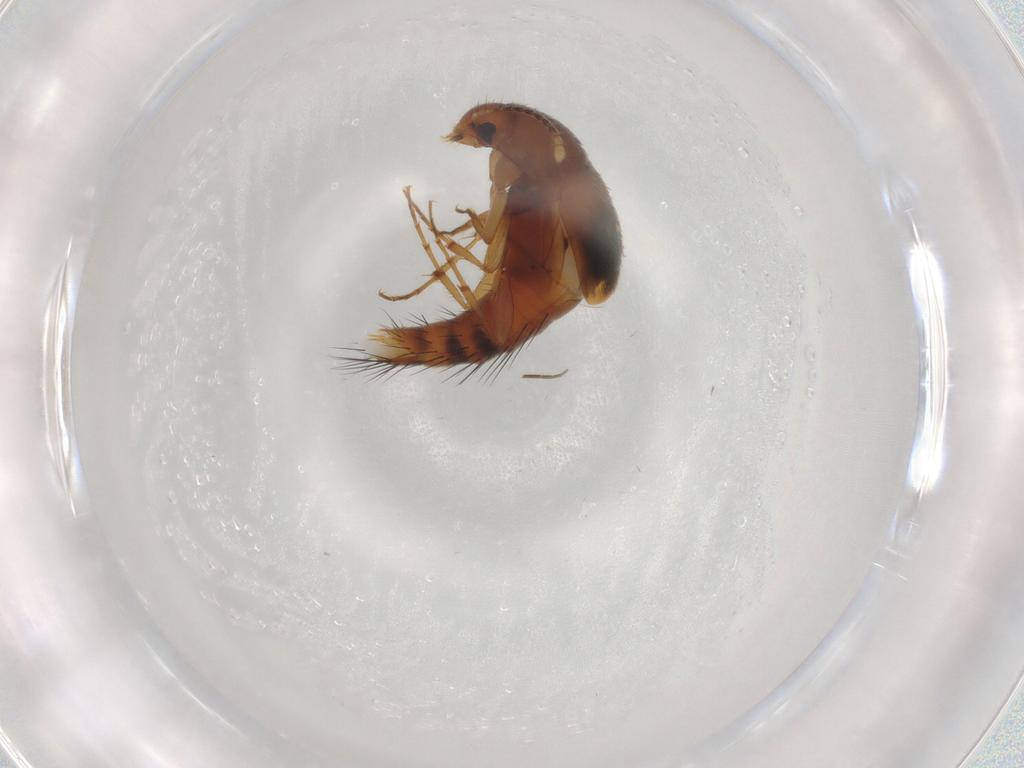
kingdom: Animalia
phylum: Arthropoda
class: Insecta
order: Coleoptera
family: Staphylinidae
